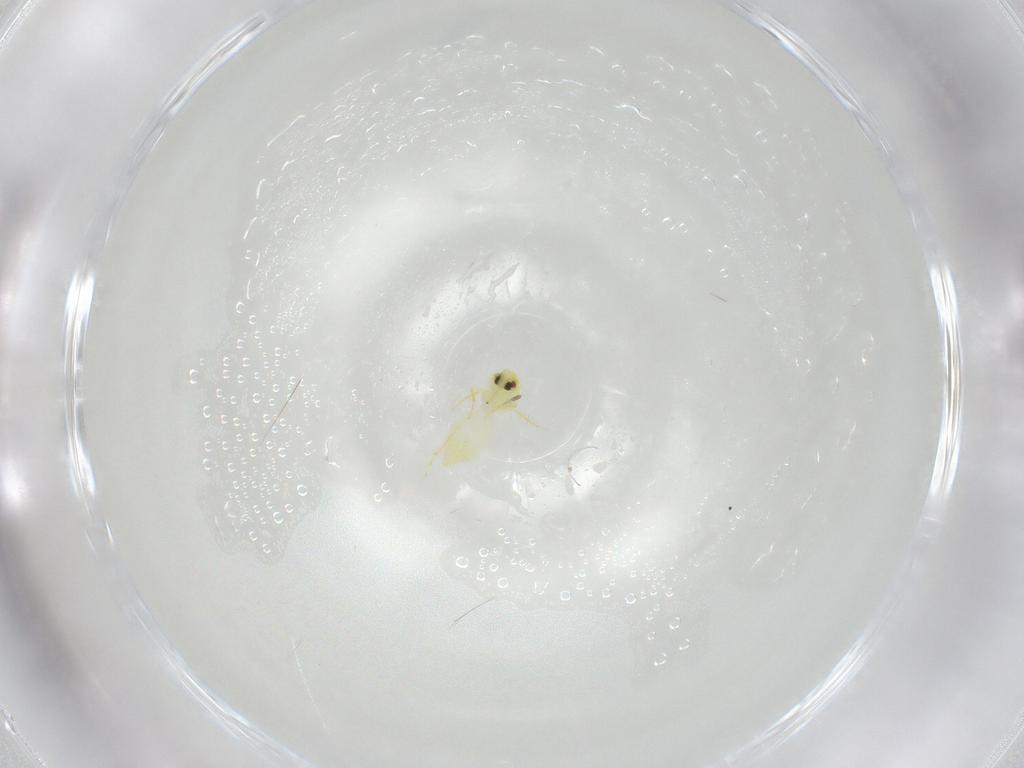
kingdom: Animalia
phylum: Arthropoda
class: Insecta
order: Hemiptera
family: Aleyrodidae
